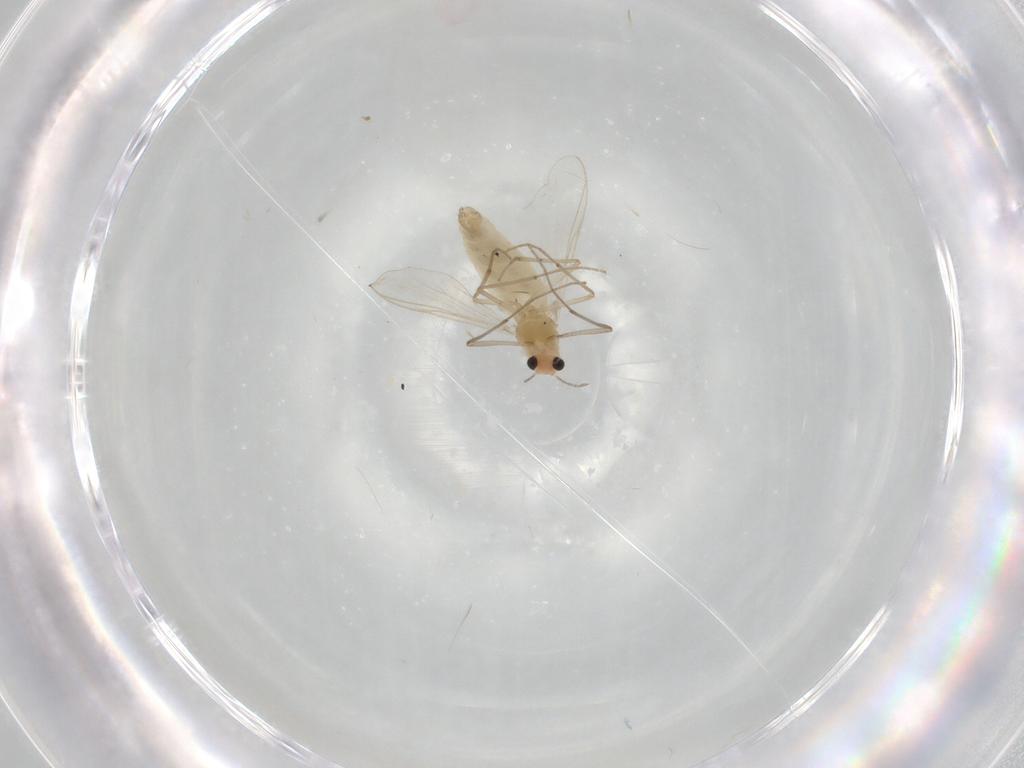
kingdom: Animalia
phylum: Arthropoda
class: Insecta
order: Diptera
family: Chironomidae
